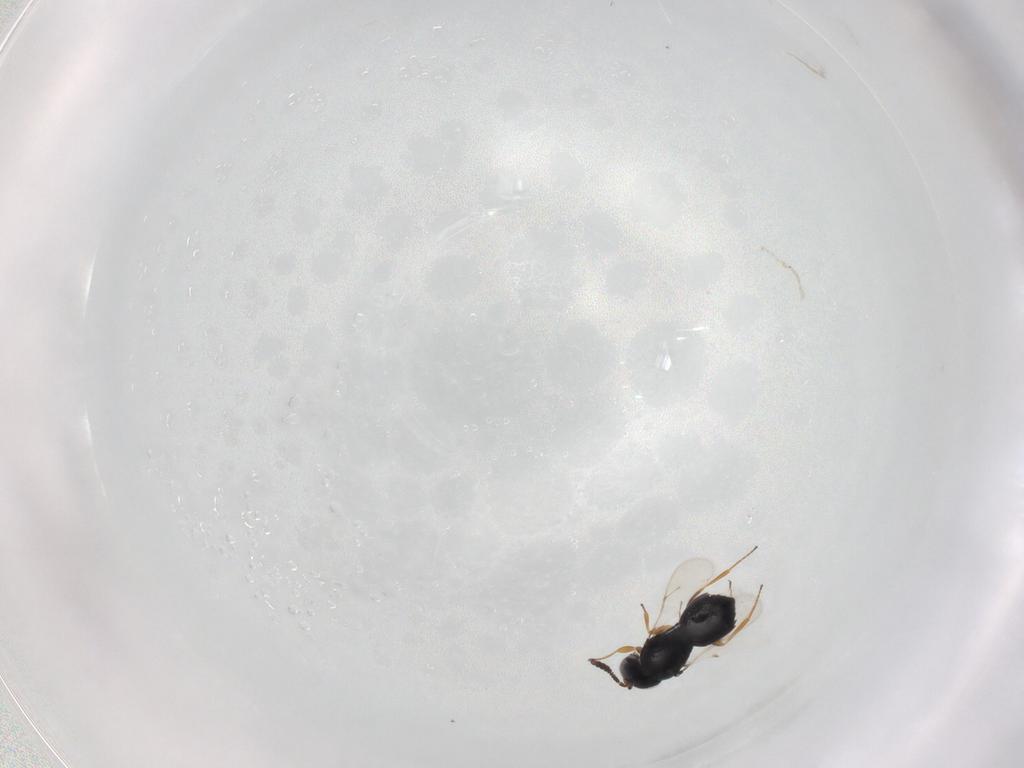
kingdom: Animalia
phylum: Arthropoda
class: Insecta
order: Hymenoptera
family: Scelionidae
